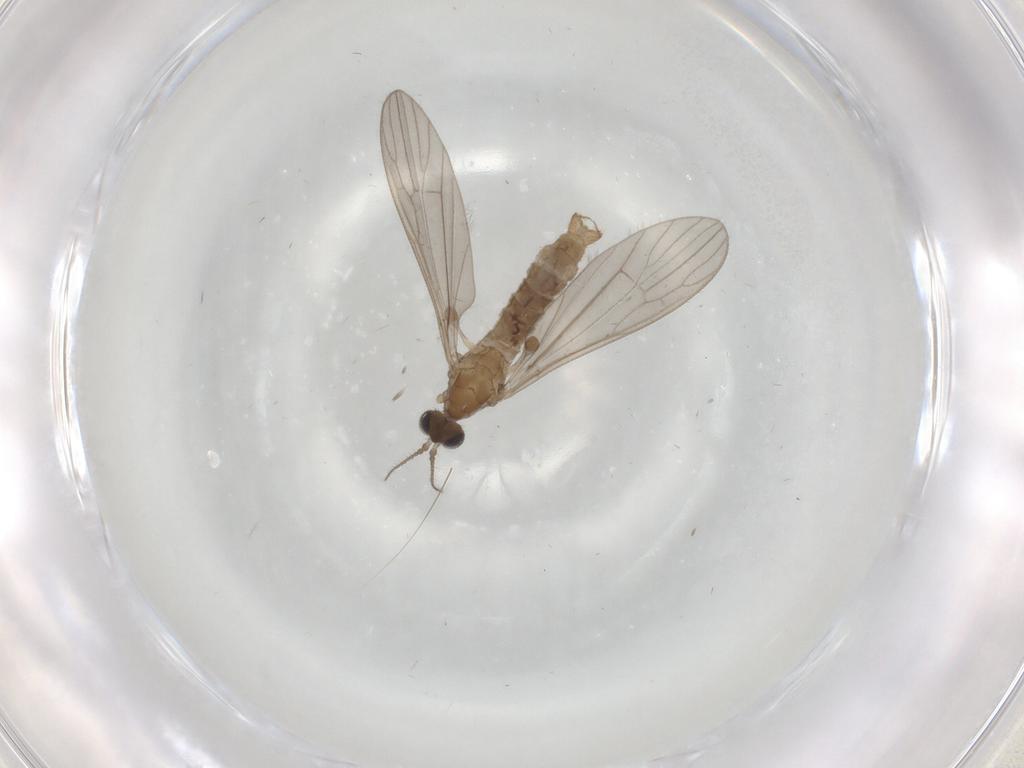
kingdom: Animalia
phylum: Arthropoda
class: Insecta
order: Diptera
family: Limoniidae
